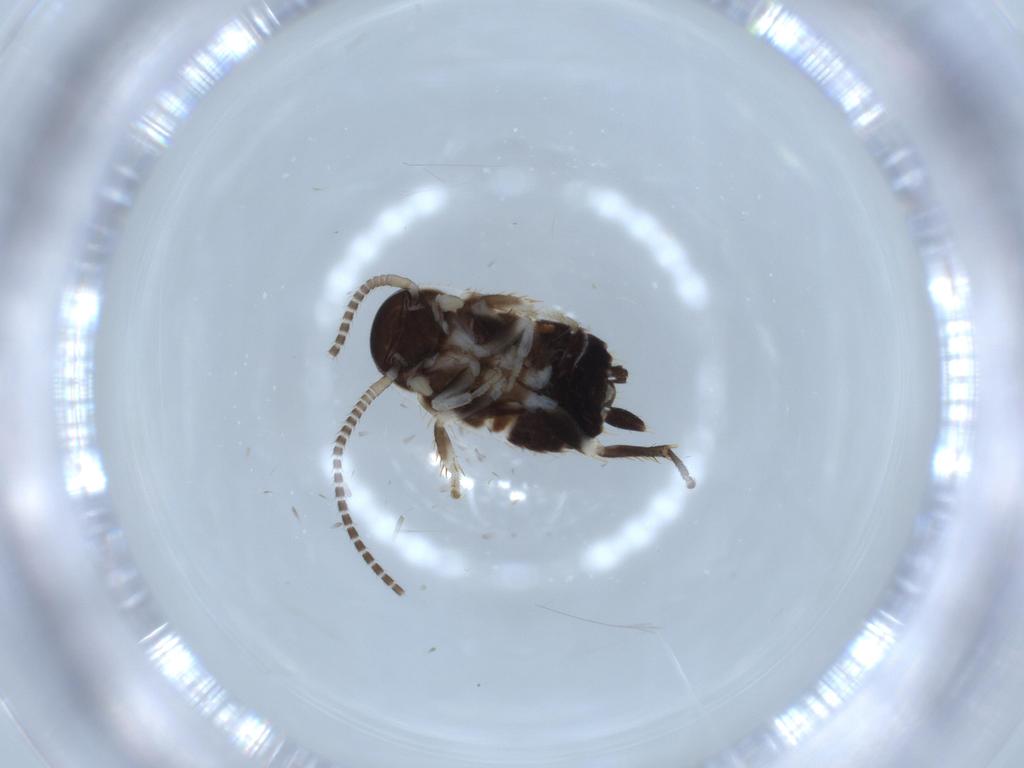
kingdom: Animalia
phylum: Arthropoda
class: Insecta
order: Blattodea
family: Ectobiidae
